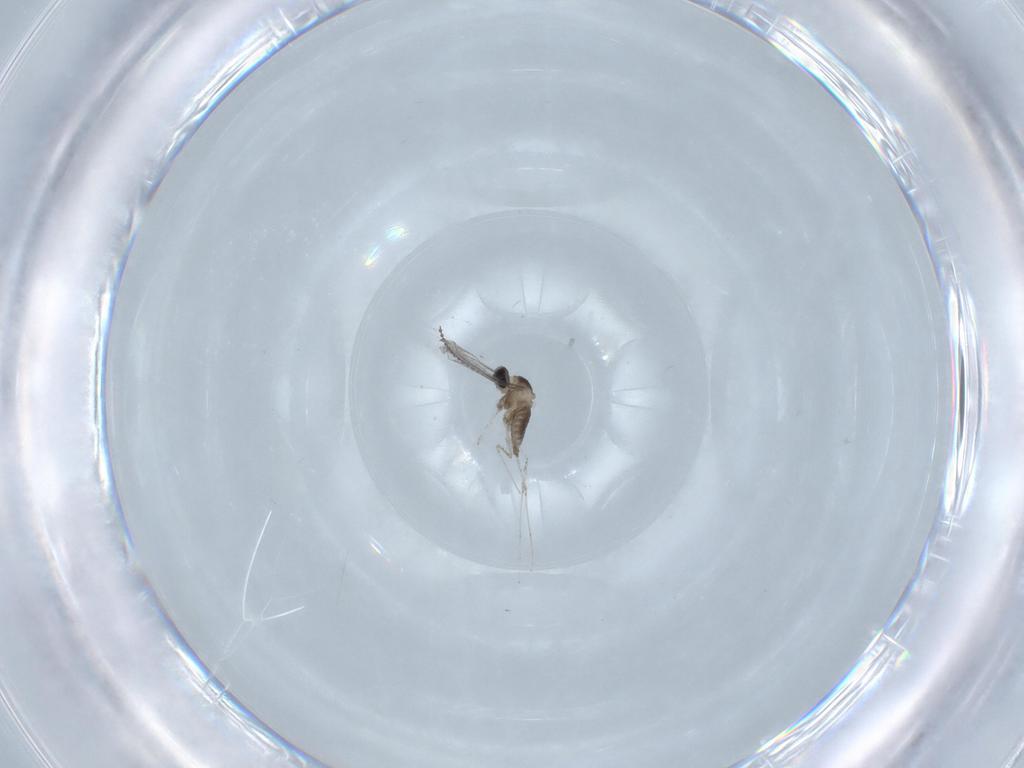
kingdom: Animalia
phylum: Arthropoda
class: Insecta
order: Diptera
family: Cecidomyiidae
